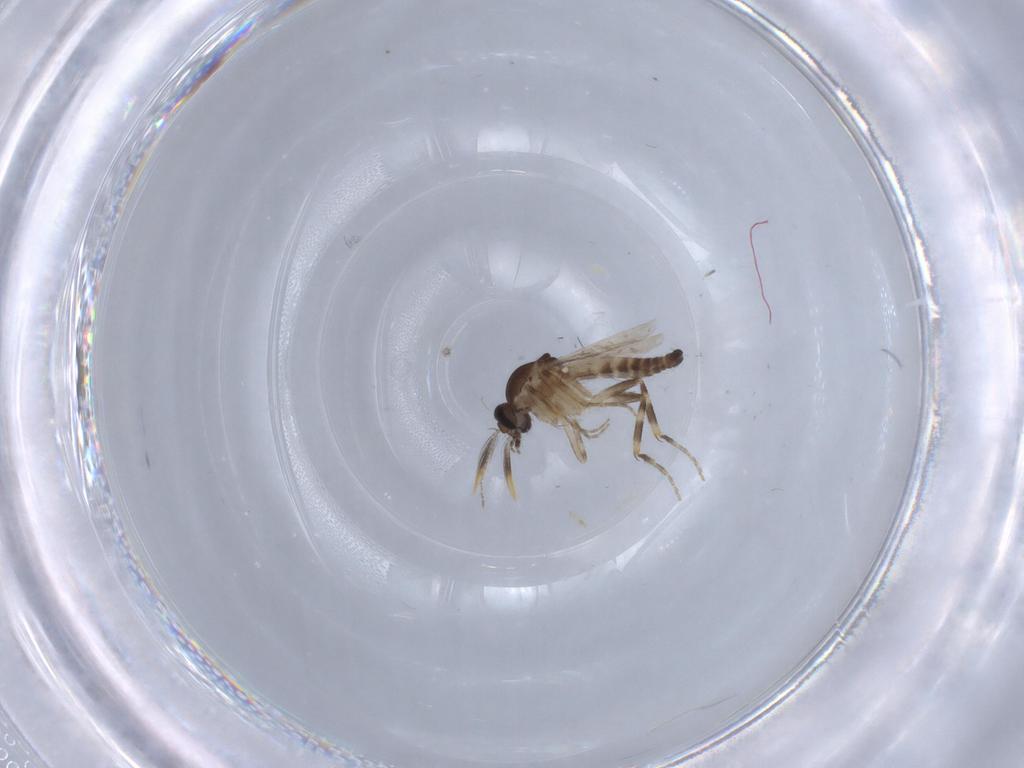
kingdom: Animalia
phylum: Arthropoda
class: Insecta
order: Diptera
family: Ceratopogonidae
